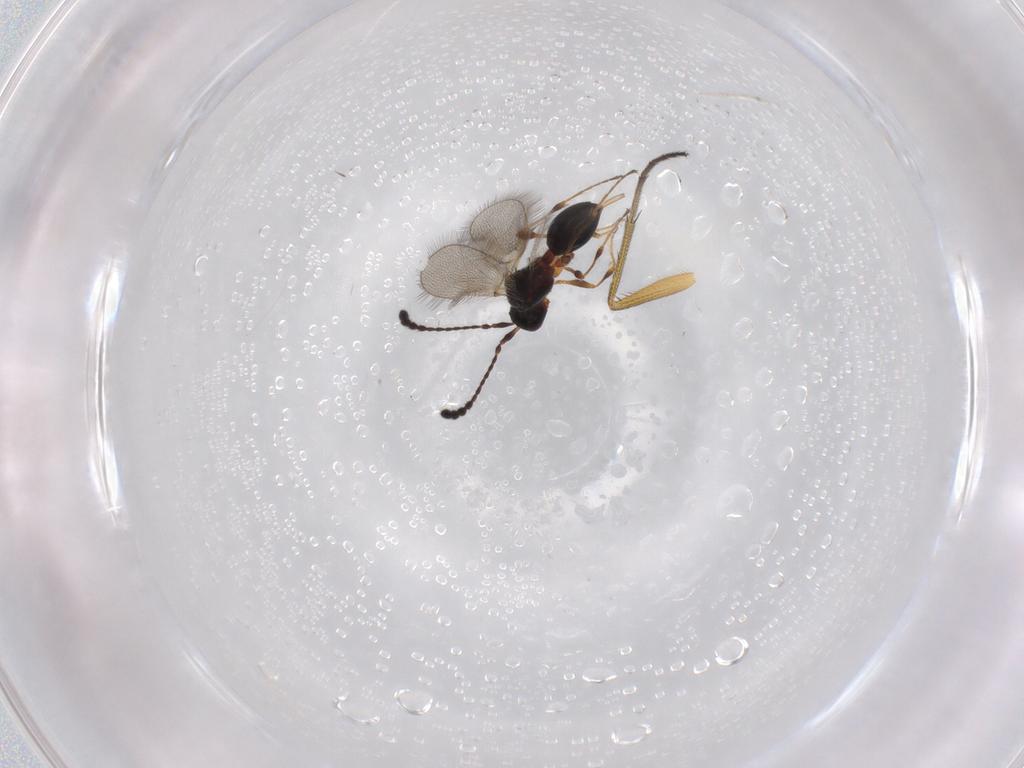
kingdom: Animalia
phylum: Arthropoda
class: Insecta
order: Hymenoptera
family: Diapriidae
